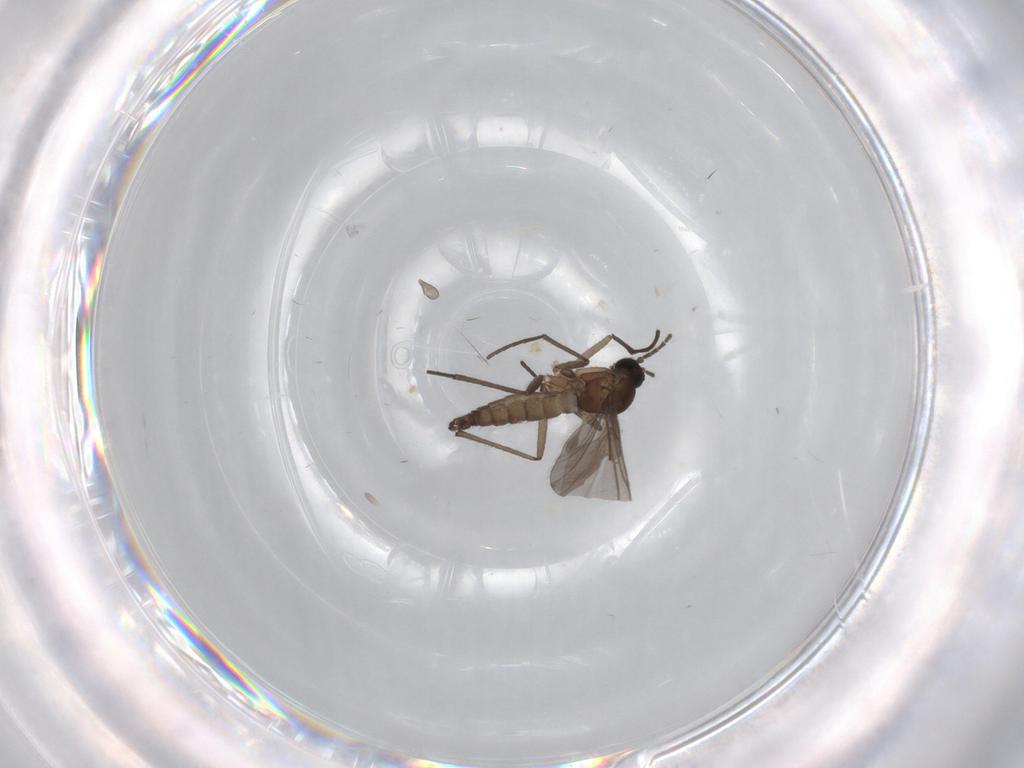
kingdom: Animalia
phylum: Arthropoda
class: Insecta
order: Diptera
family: Sciaridae
